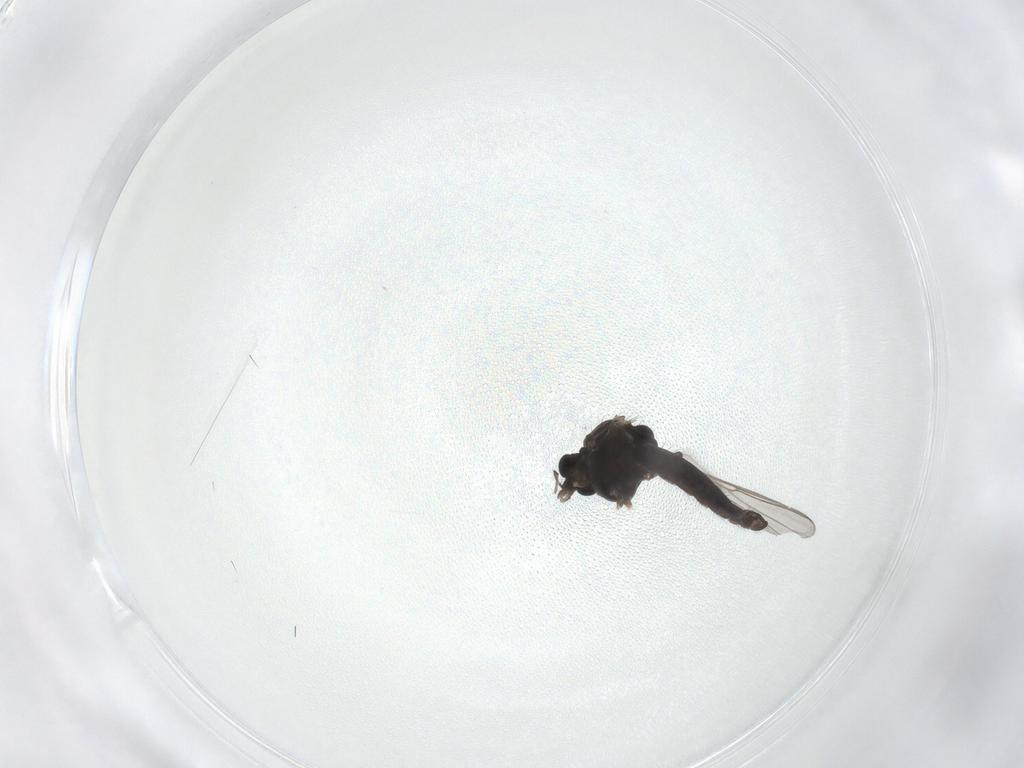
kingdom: Animalia
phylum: Arthropoda
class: Insecta
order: Diptera
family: Chironomidae
